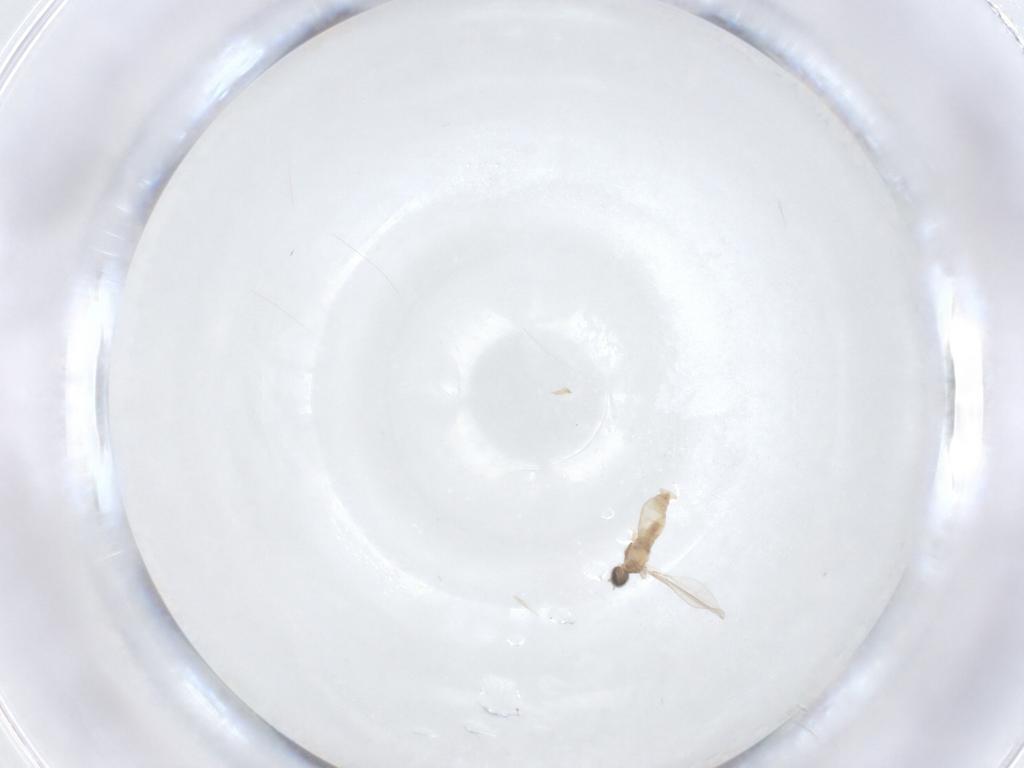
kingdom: Animalia
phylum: Arthropoda
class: Insecta
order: Diptera
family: Cecidomyiidae
